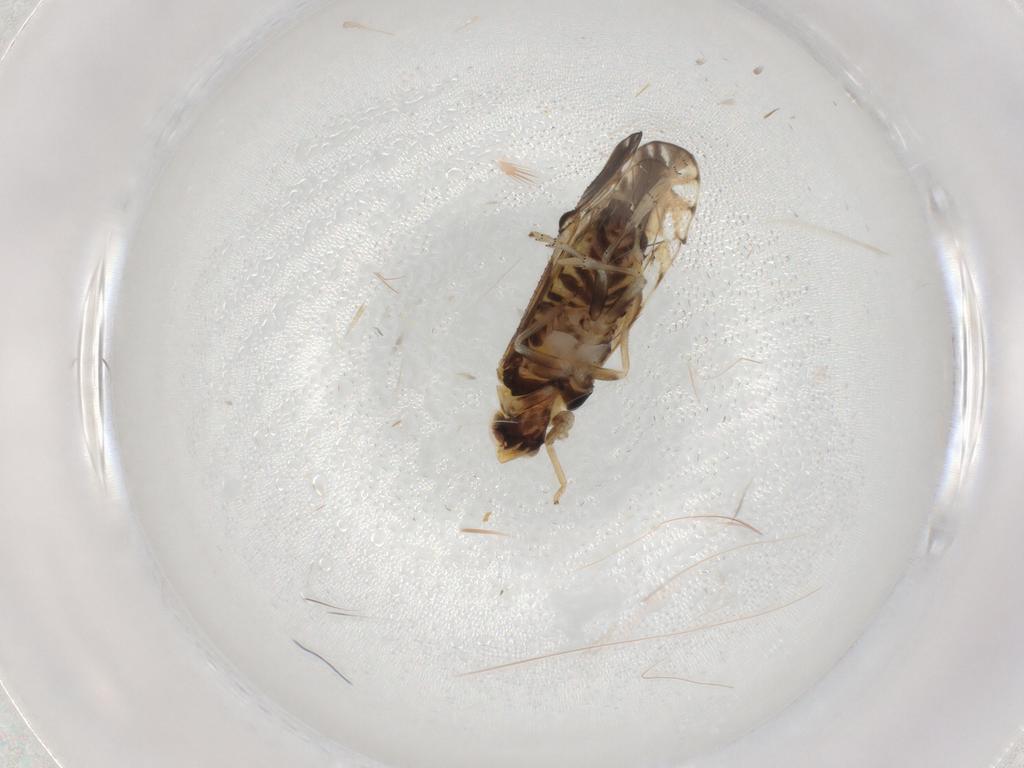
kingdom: Animalia
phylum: Arthropoda
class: Insecta
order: Hemiptera
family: Delphacidae
